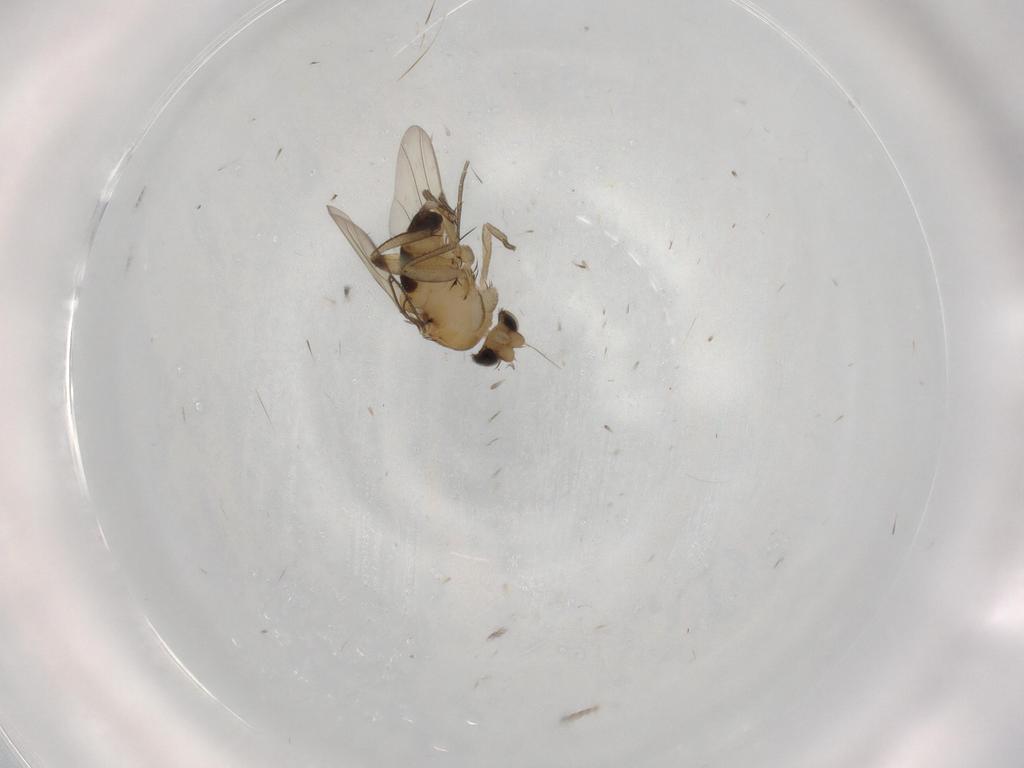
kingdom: Animalia
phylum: Arthropoda
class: Insecta
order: Diptera
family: Phoridae
